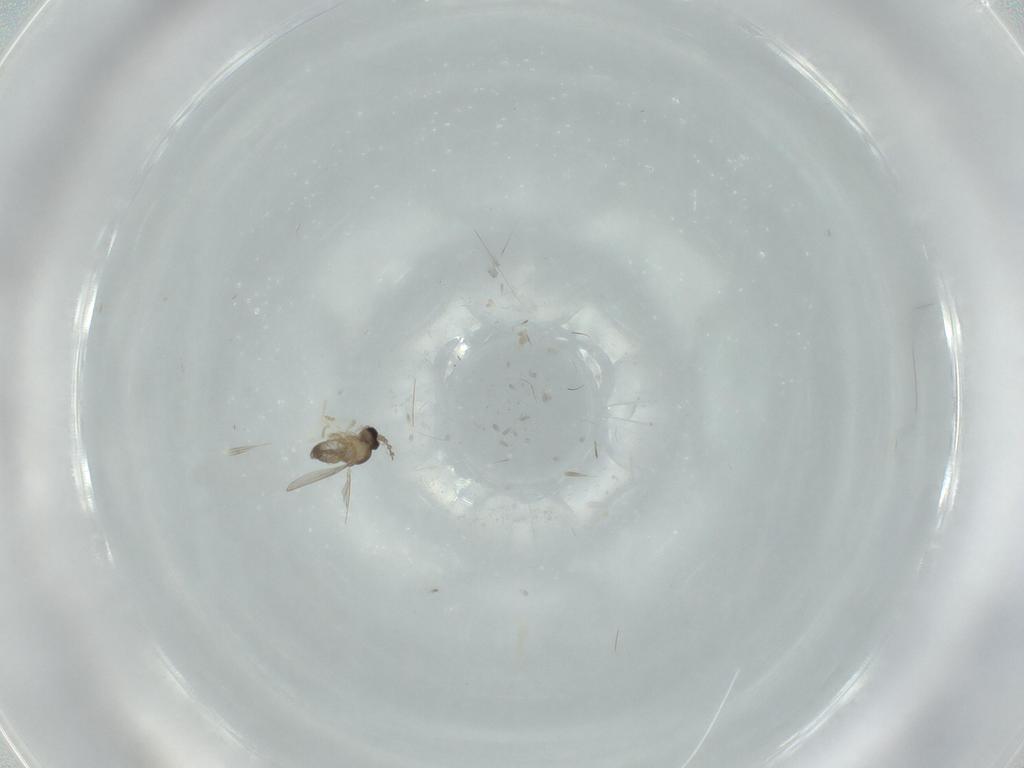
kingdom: Animalia
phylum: Arthropoda
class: Insecta
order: Diptera
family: Cecidomyiidae
